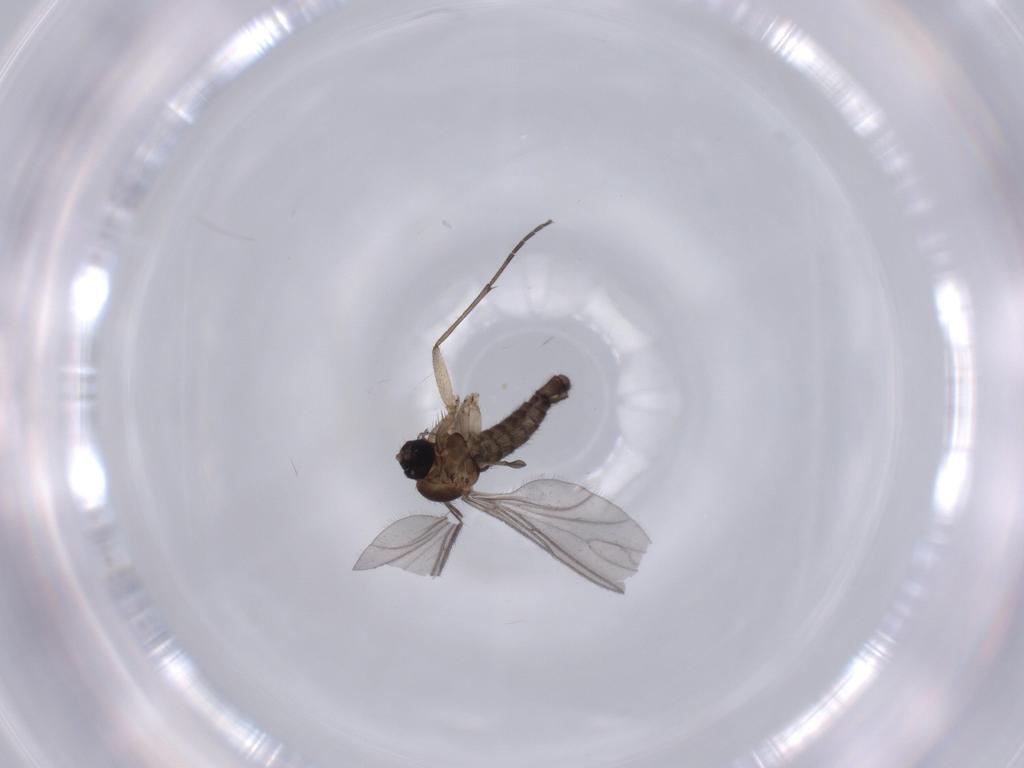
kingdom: Animalia
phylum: Arthropoda
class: Insecta
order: Diptera
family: Sciaridae
